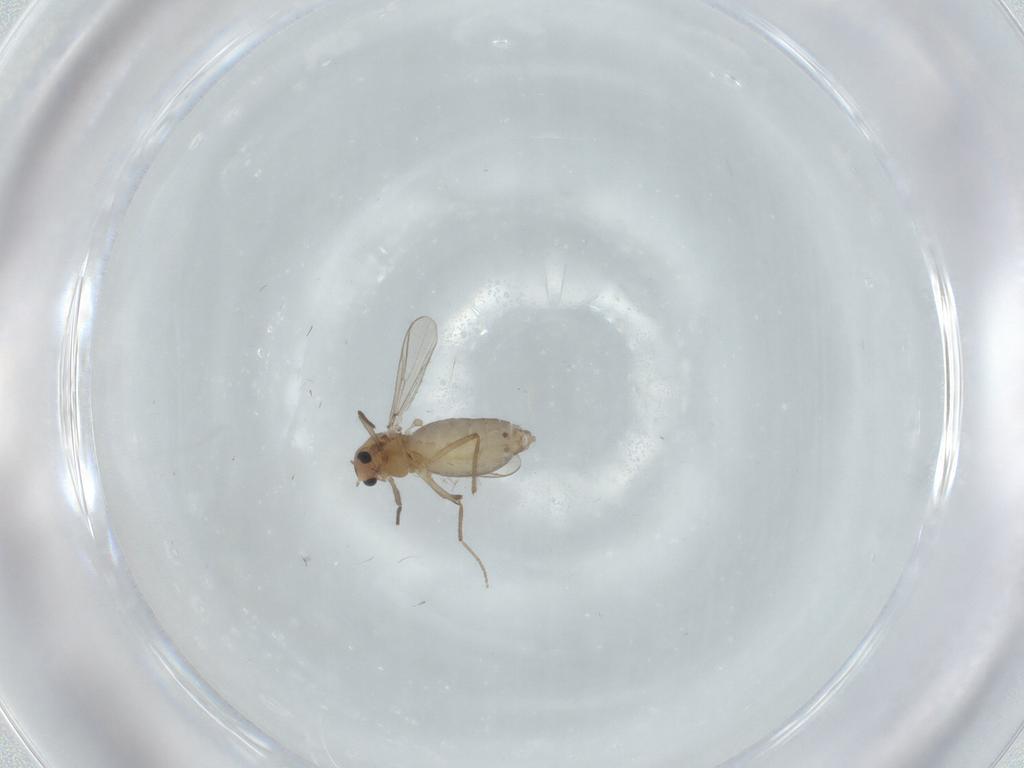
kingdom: Animalia
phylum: Arthropoda
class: Insecta
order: Diptera
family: Chironomidae
